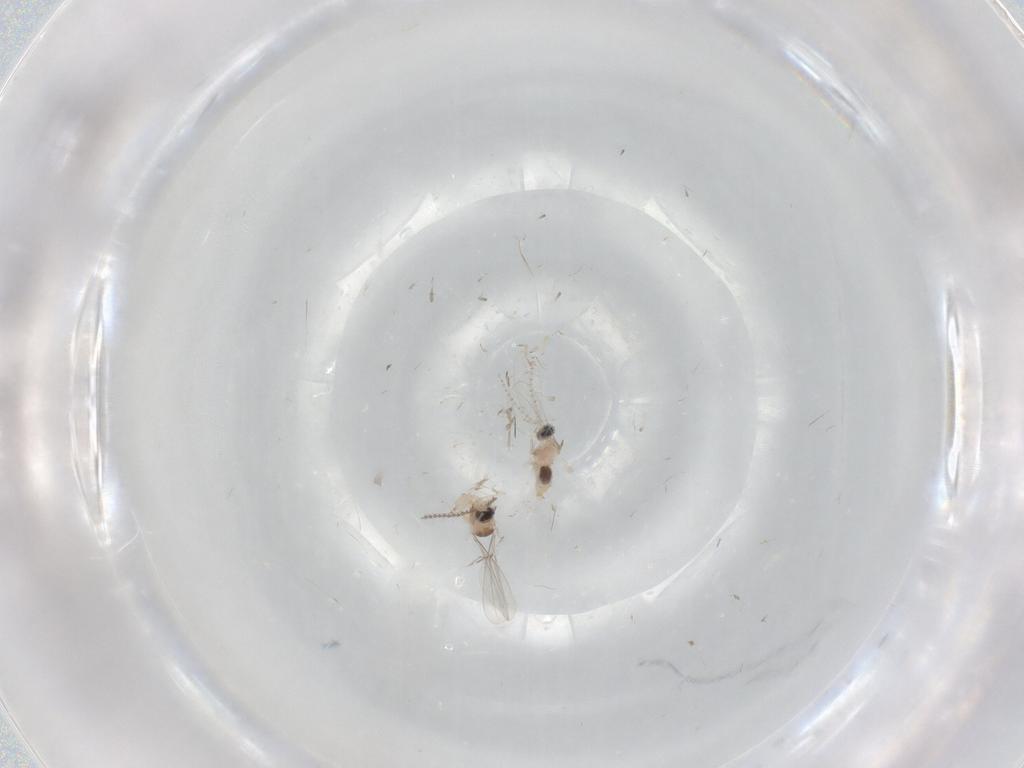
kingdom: Animalia
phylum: Arthropoda
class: Insecta
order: Diptera
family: Cecidomyiidae
